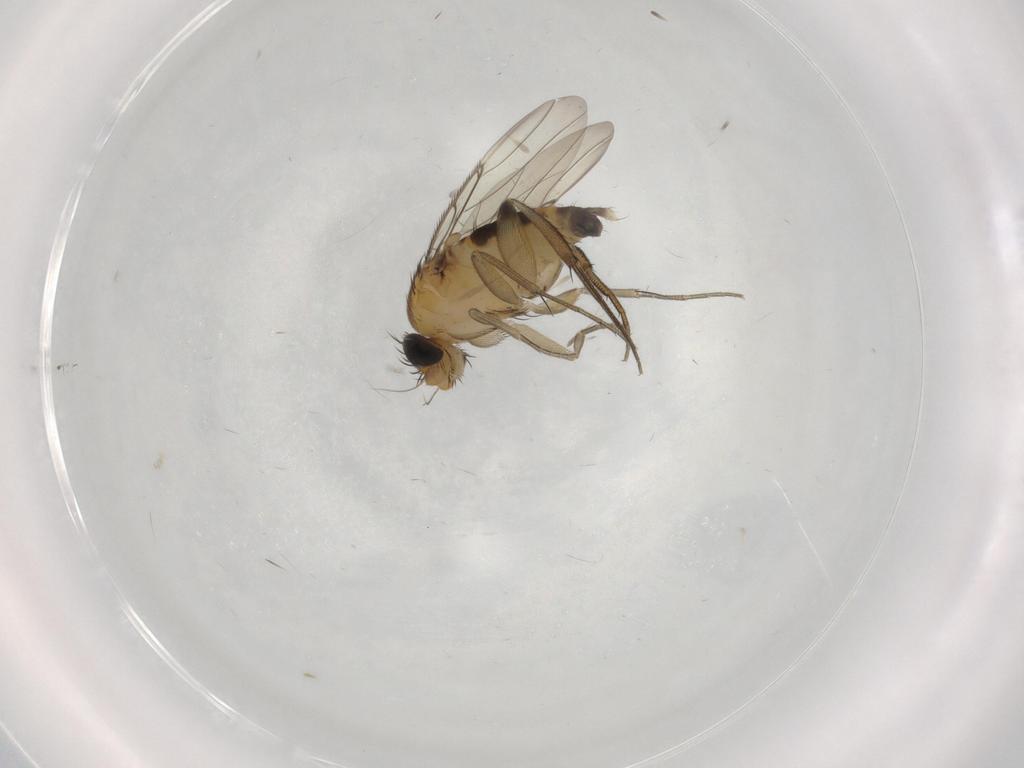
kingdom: Animalia
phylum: Arthropoda
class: Insecta
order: Diptera
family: Phoridae
